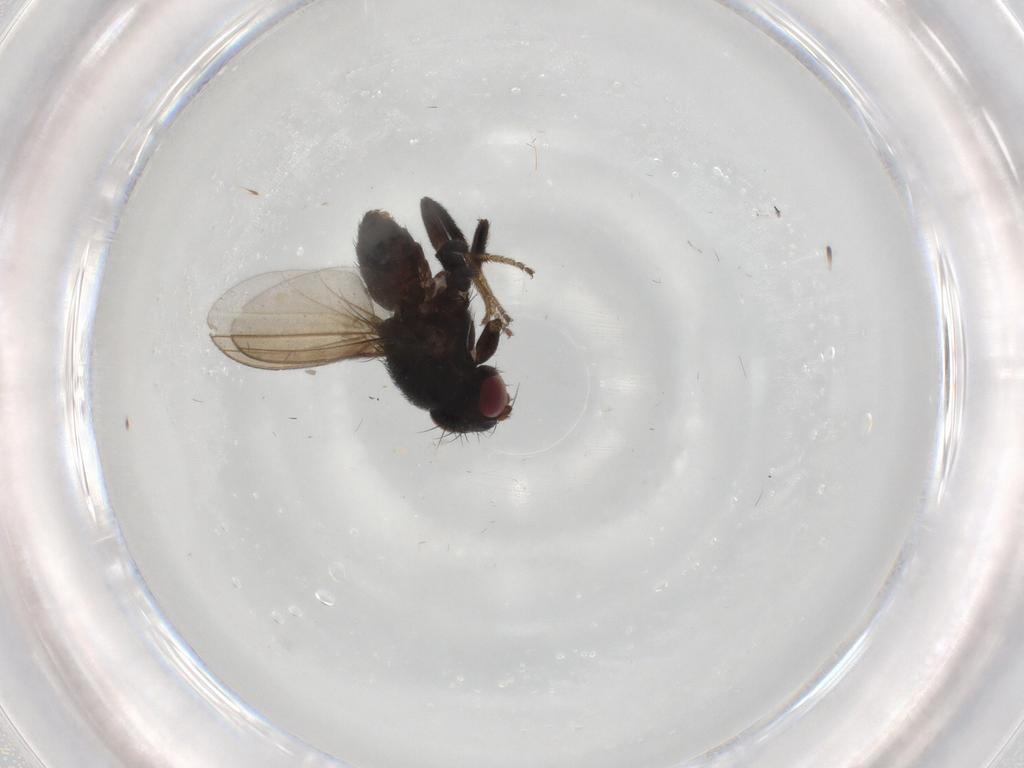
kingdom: Animalia
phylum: Arthropoda
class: Insecta
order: Diptera
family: Milichiidae
